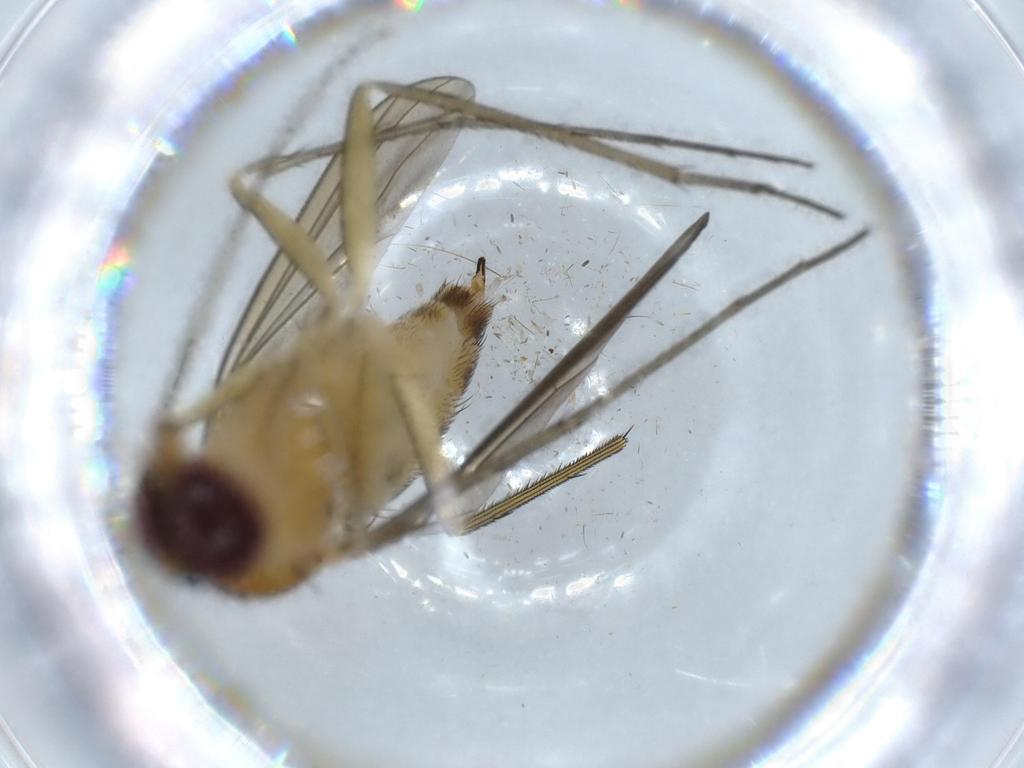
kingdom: Animalia
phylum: Arthropoda
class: Insecta
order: Diptera
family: Dolichopodidae
